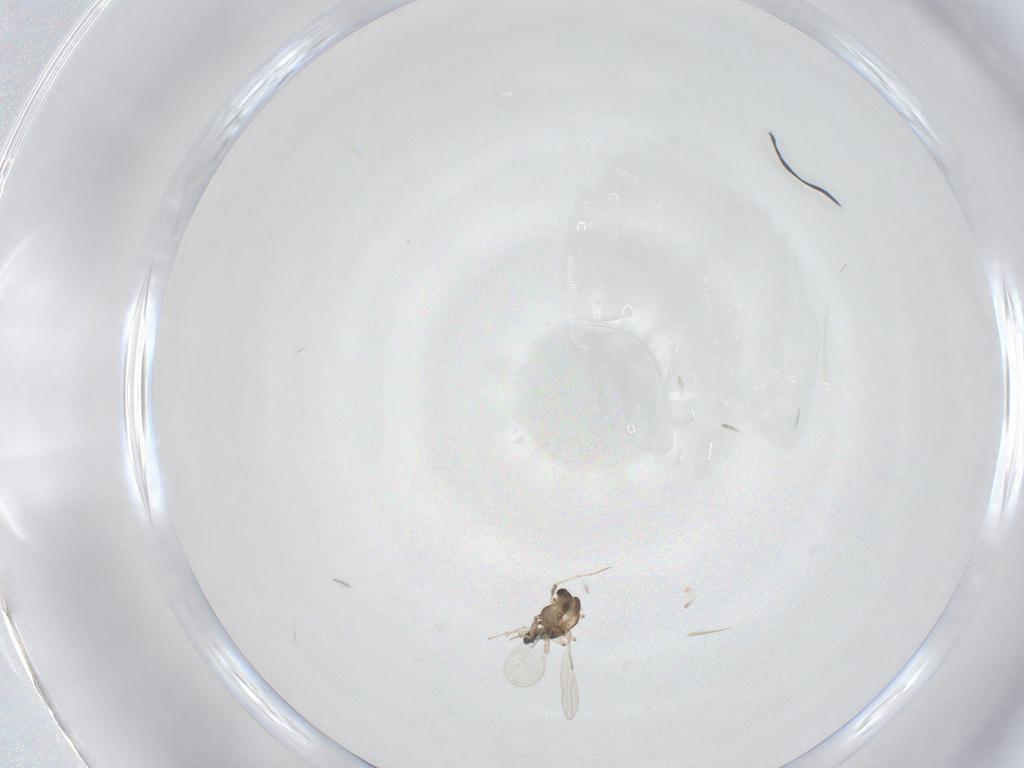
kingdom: Animalia
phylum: Arthropoda
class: Insecta
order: Diptera
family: Chironomidae
